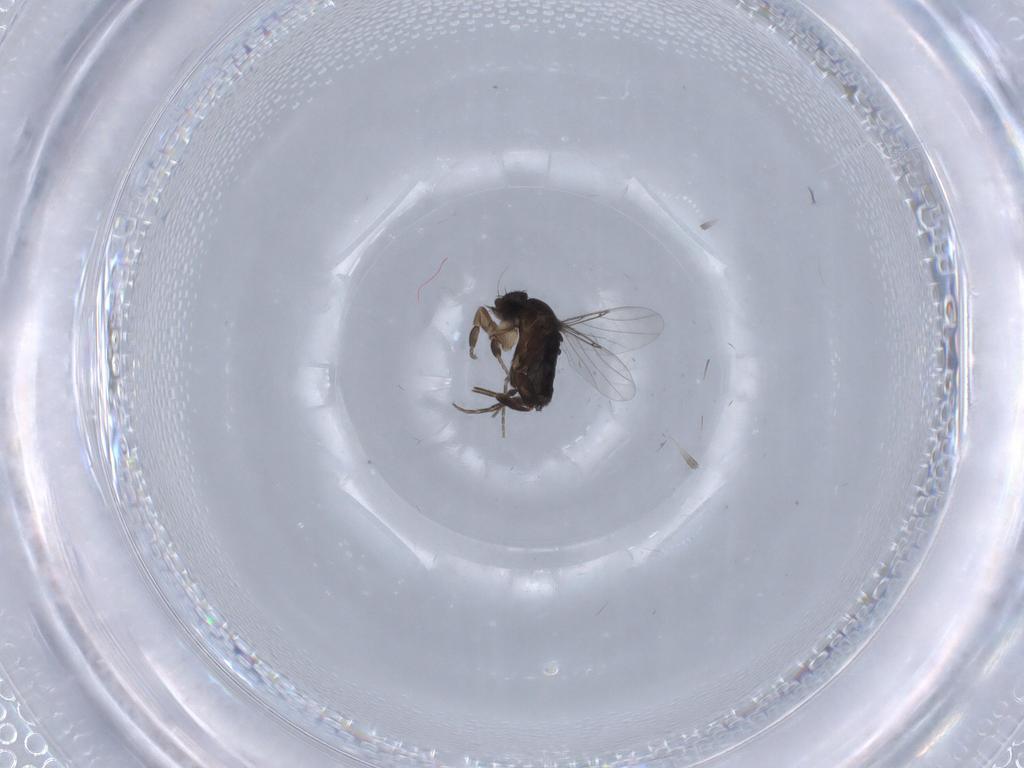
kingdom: Animalia
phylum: Arthropoda
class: Insecta
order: Diptera
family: Phoridae
